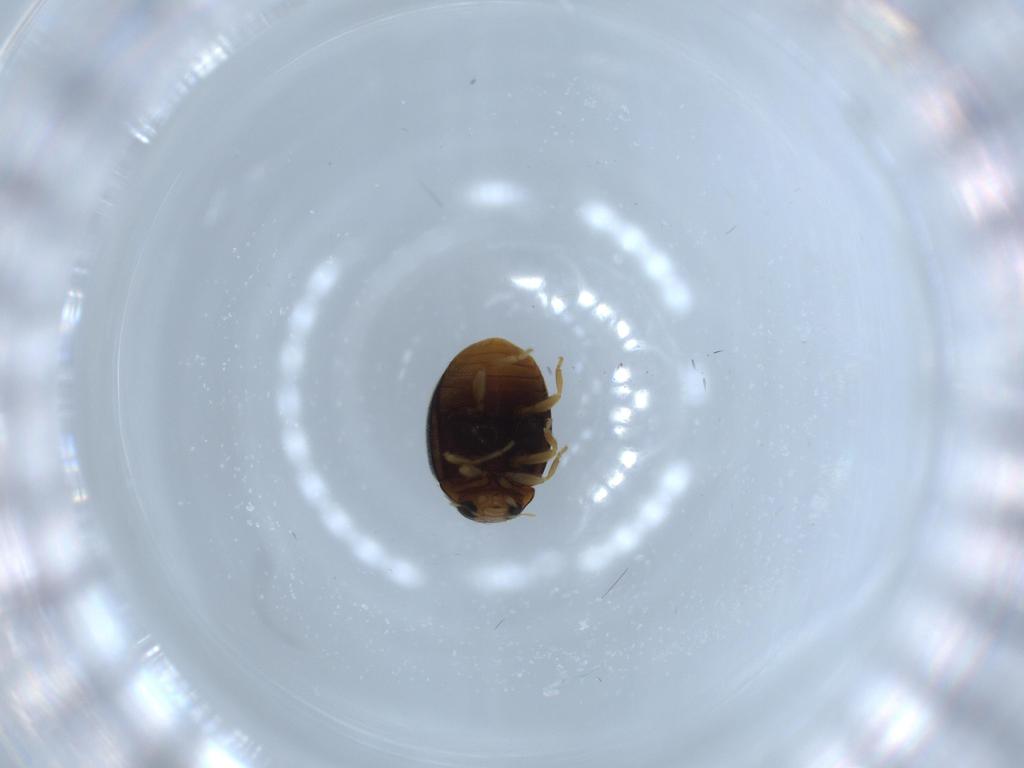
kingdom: Animalia
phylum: Arthropoda
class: Insecta
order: Coleoptera
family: Coccinellidae
